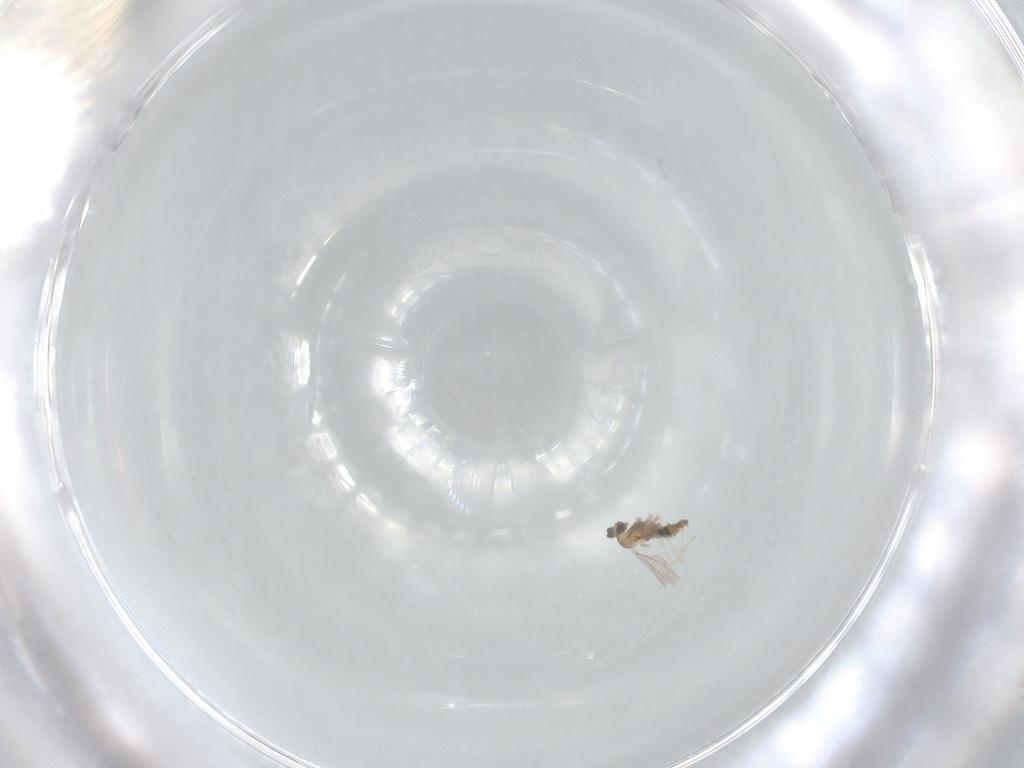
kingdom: Animalia
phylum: Arthropoda
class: Insecta
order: Diptera
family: Cecidomyiidae
